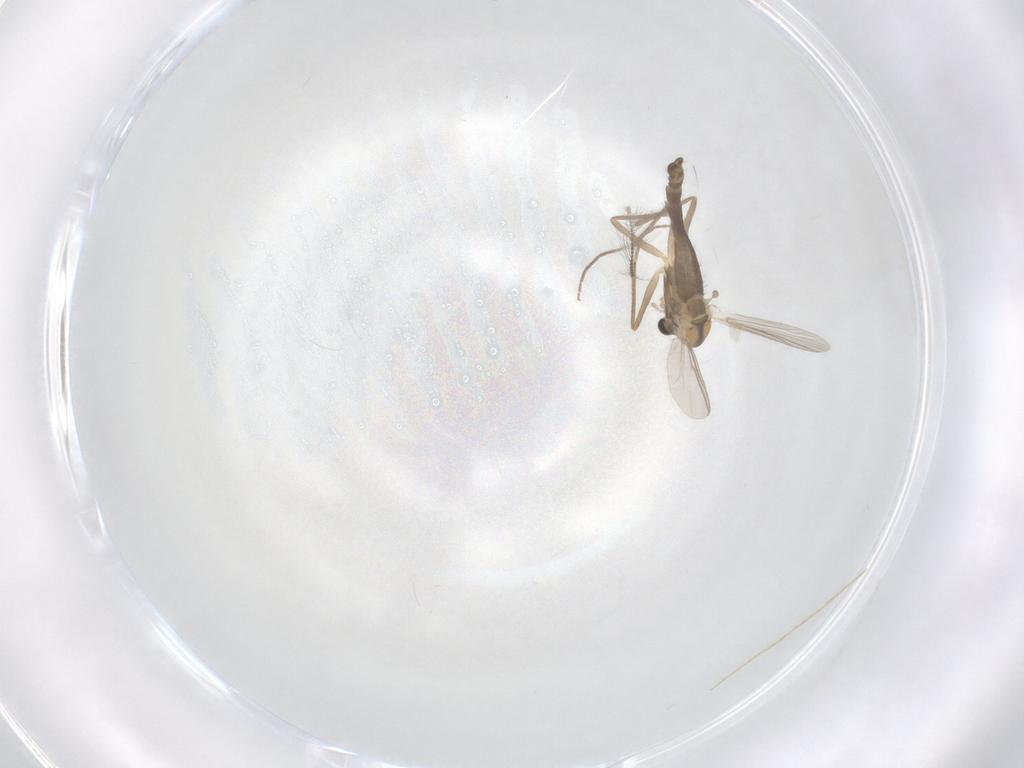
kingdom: Animalia
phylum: Arthropoda
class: Insecta
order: Diptera
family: Chironomidae
